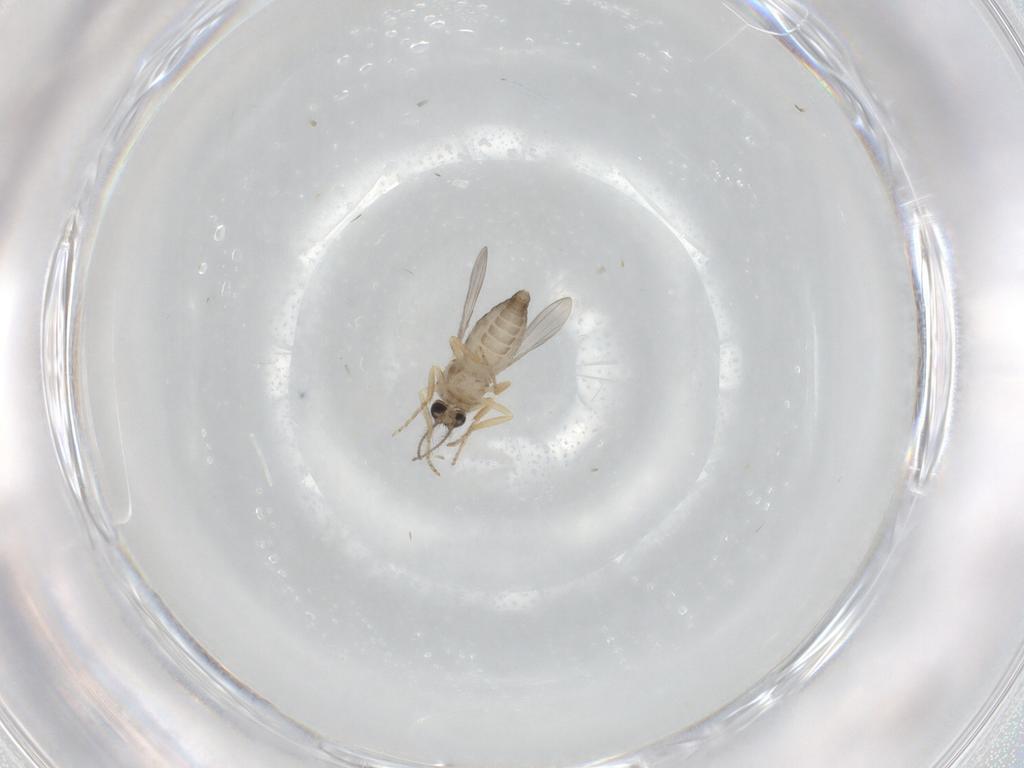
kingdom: Animalia
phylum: Arthropoda
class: Insecta
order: Diptera
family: Ceratopogonidae
